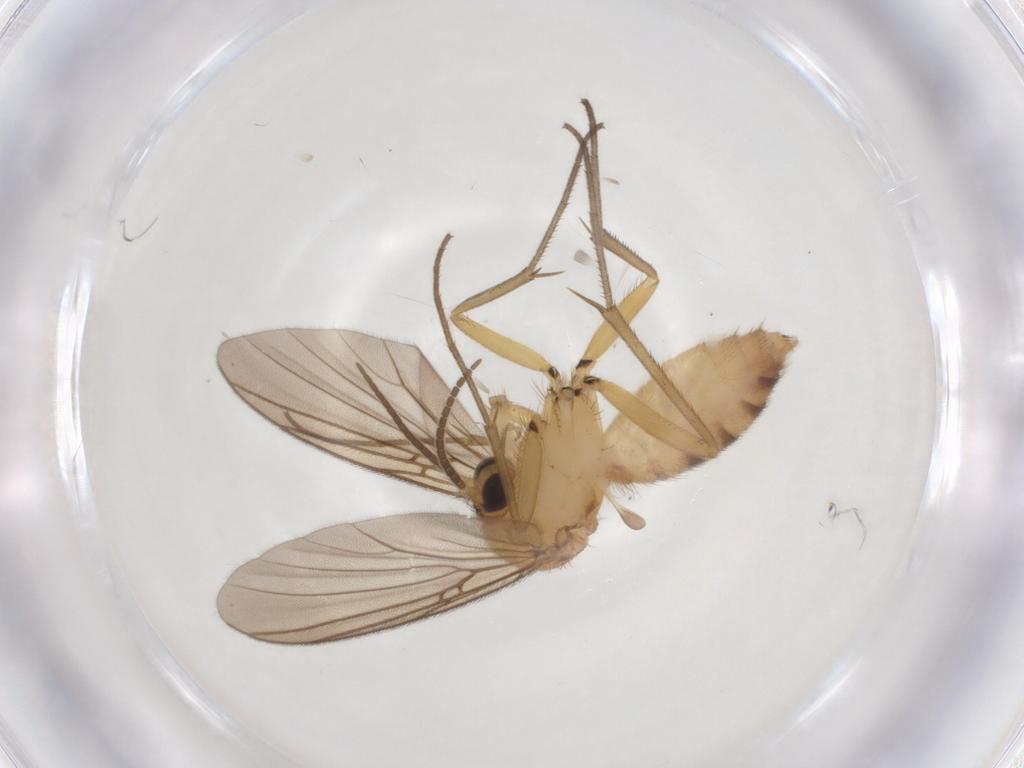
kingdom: Animalia
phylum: Arthropoda
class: Insecta
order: Diptera
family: Mycetophilidae
